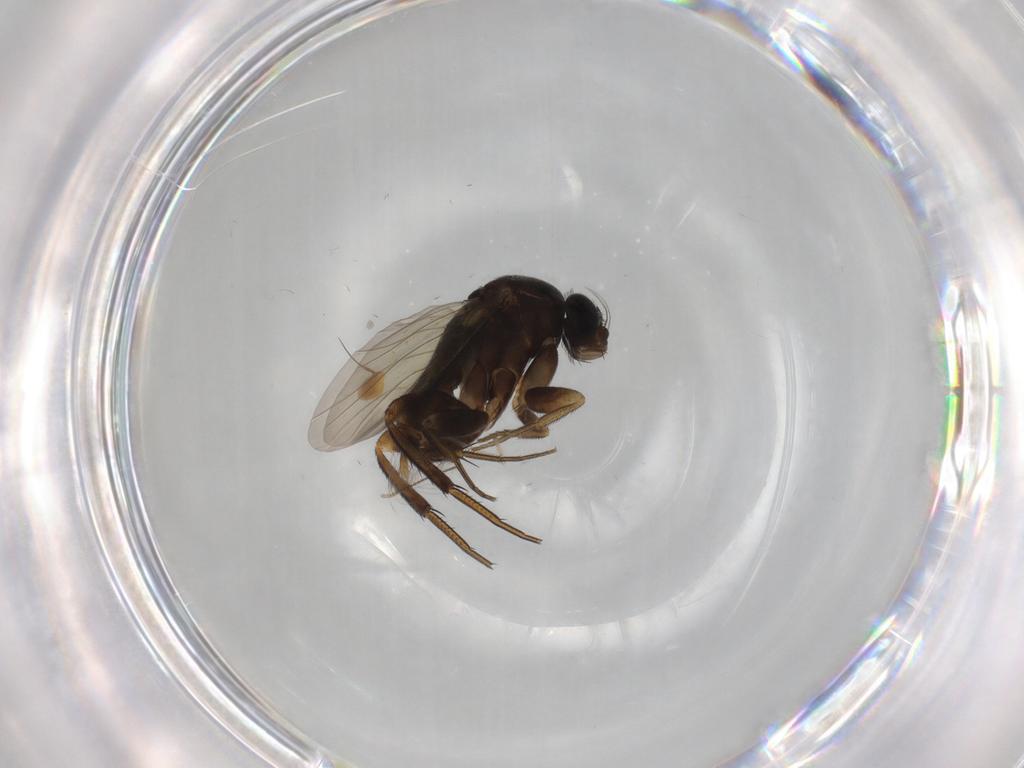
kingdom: Animalia
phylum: Arthropoda
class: Insecta
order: Diptera
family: Phoridae
